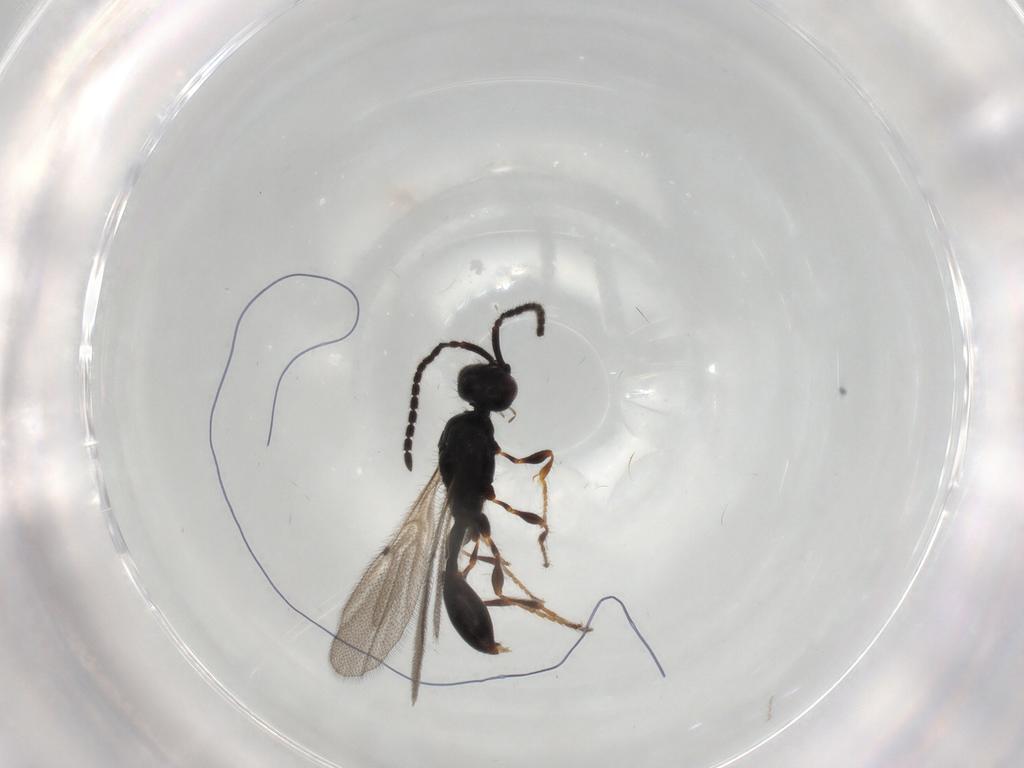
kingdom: Animalia
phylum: Arthropoda
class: Insecta
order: Hymenoptera
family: Diapriidae
